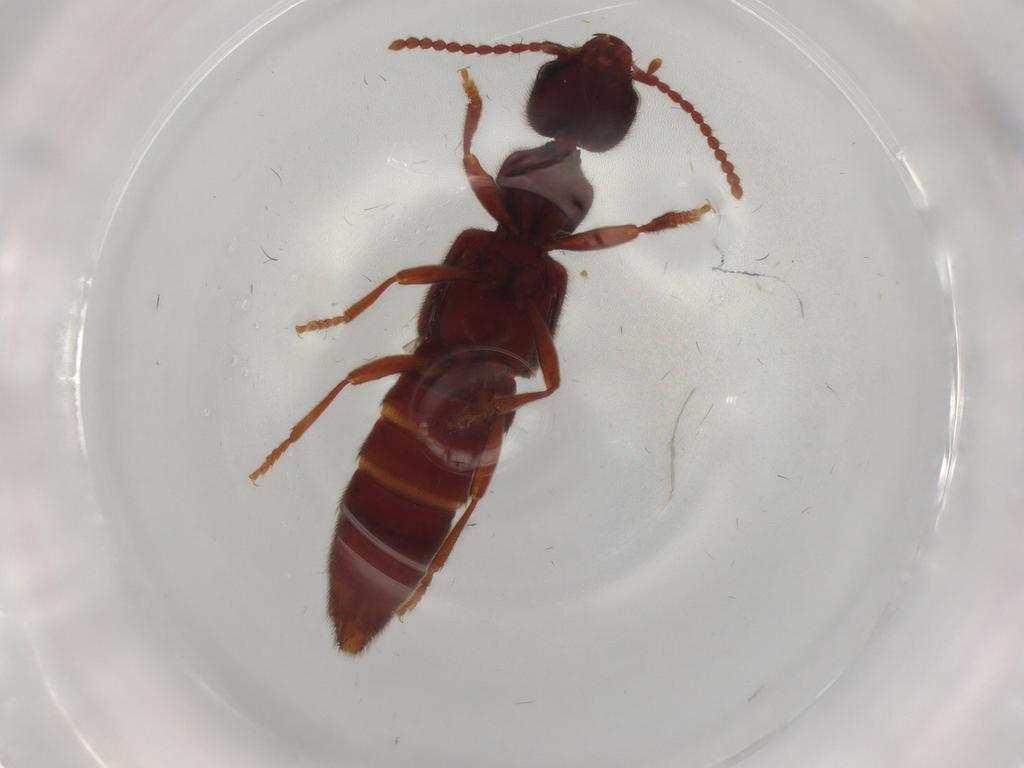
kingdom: Animalia
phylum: Arthropoda
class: Insecta
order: Coleoptera
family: Staphylinidae
